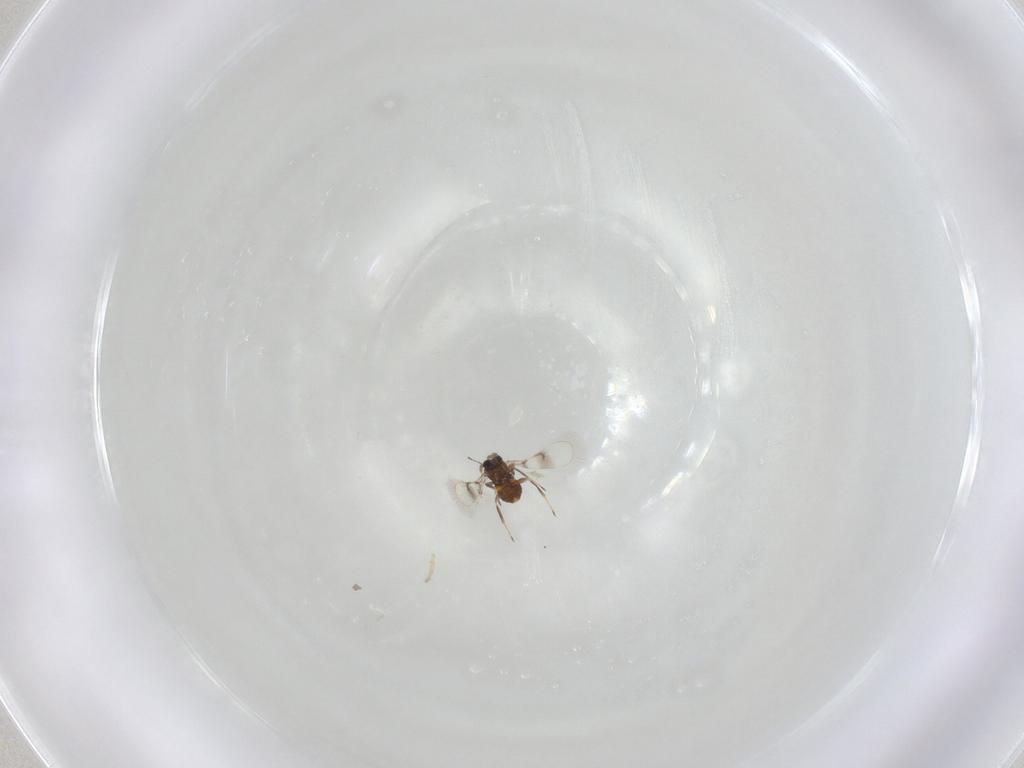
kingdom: Animalia
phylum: Arthropoda
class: Insecta
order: Hymenoptera
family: Trichogrammatidae
